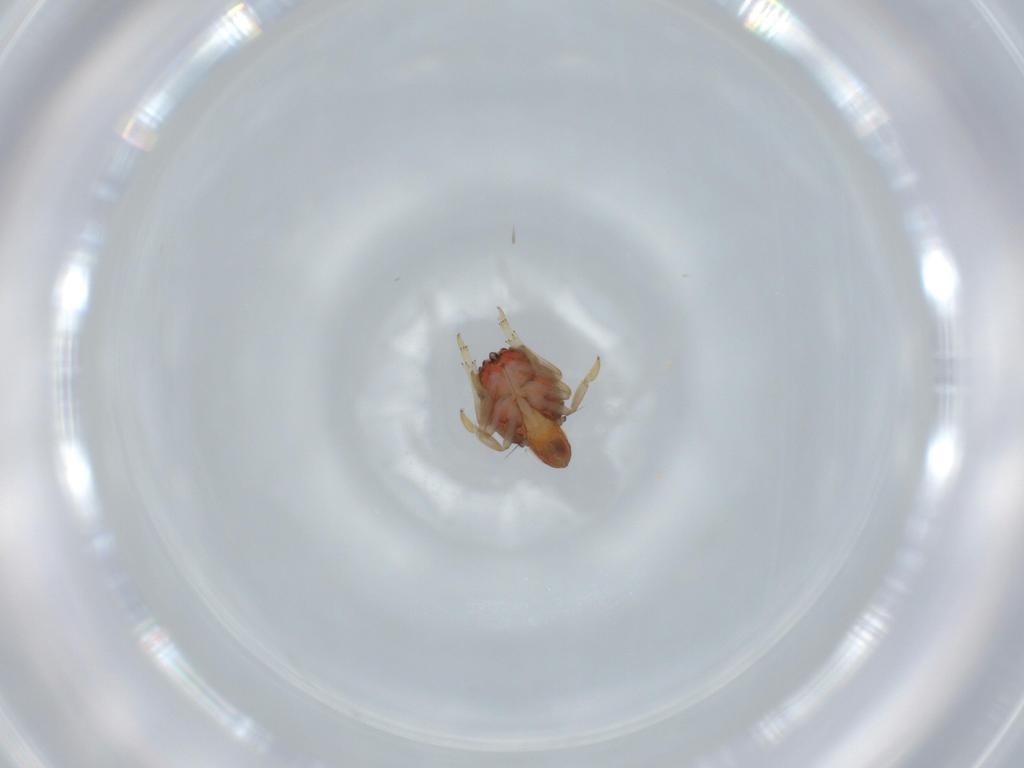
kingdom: Animalia
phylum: Arthropoda
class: Insecta
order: Hemiptera
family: Issidae
